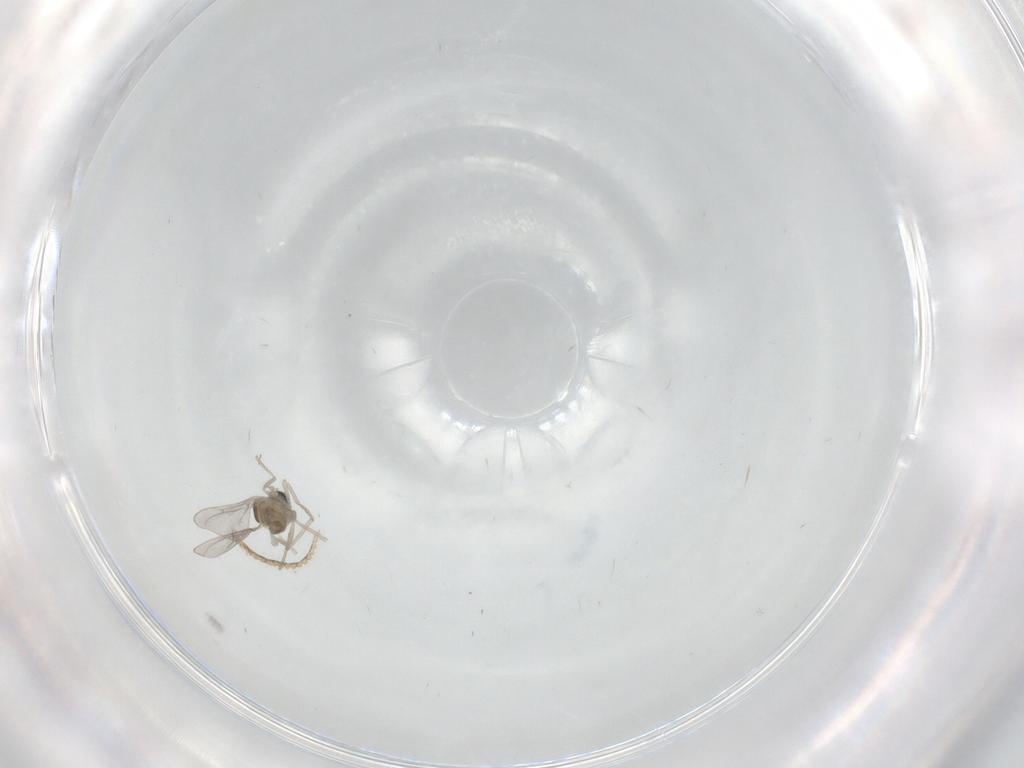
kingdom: Animalia
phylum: Arthropoda
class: Insecta
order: Diptera
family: Cecidomyiidae
